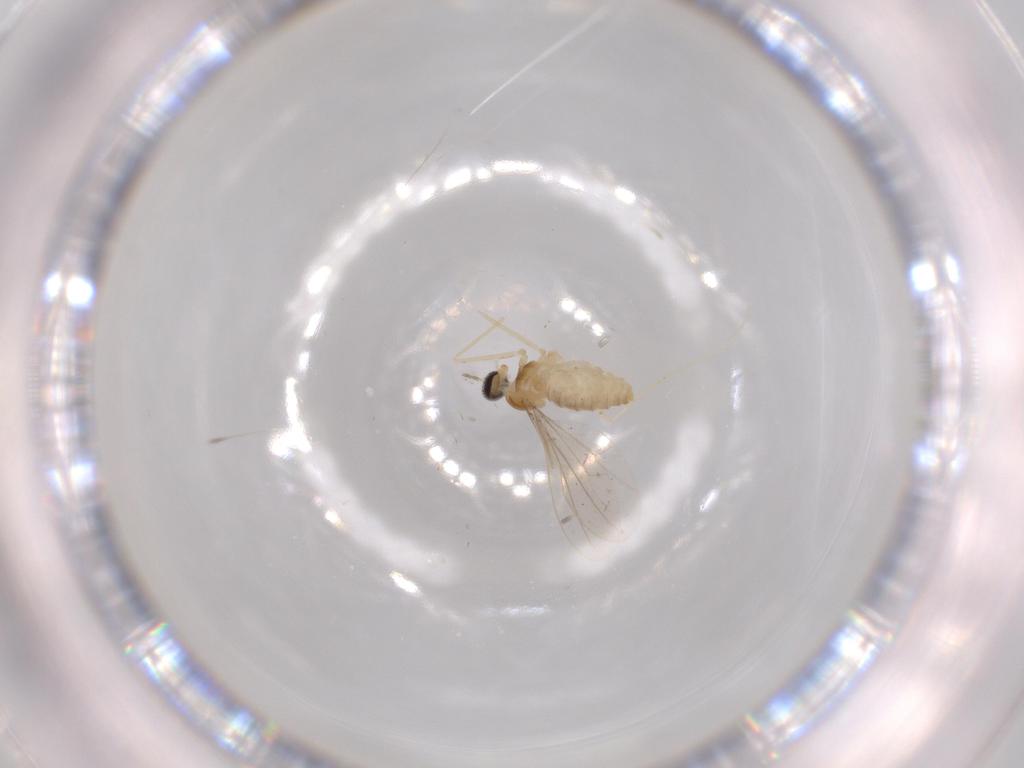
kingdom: Animalia
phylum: Arthropoda
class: Insecta
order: Diptera
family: Cecidomyiidae
